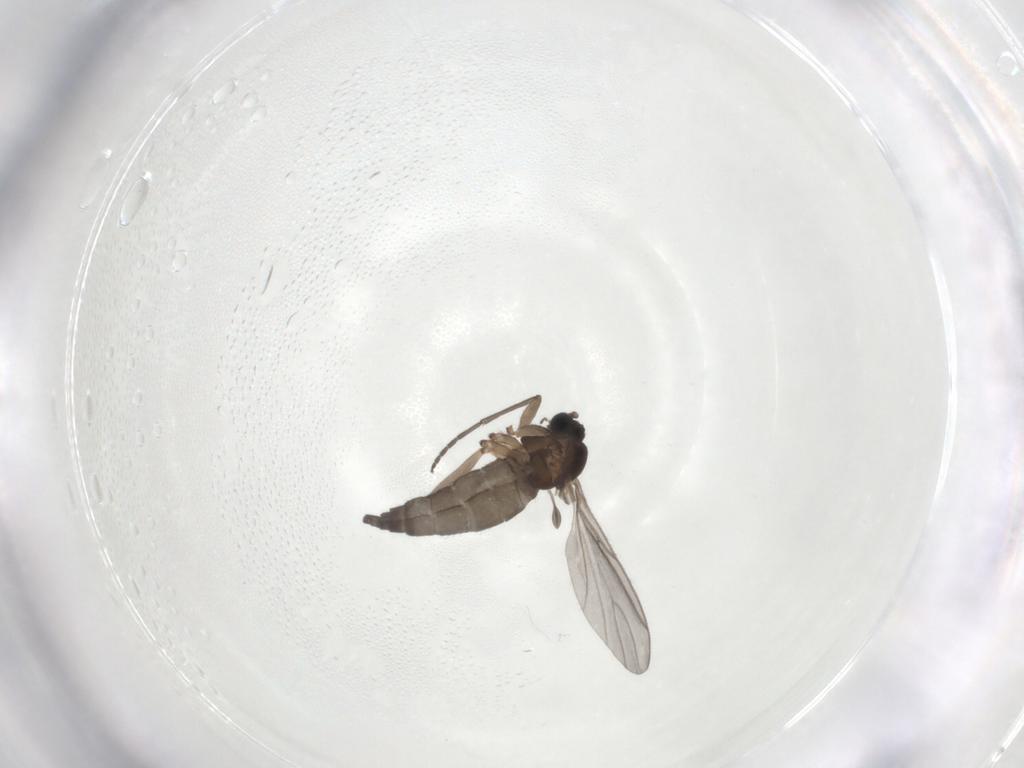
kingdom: Animalia
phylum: Arthropoda
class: Insecta
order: Diptera
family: Sciaridae
